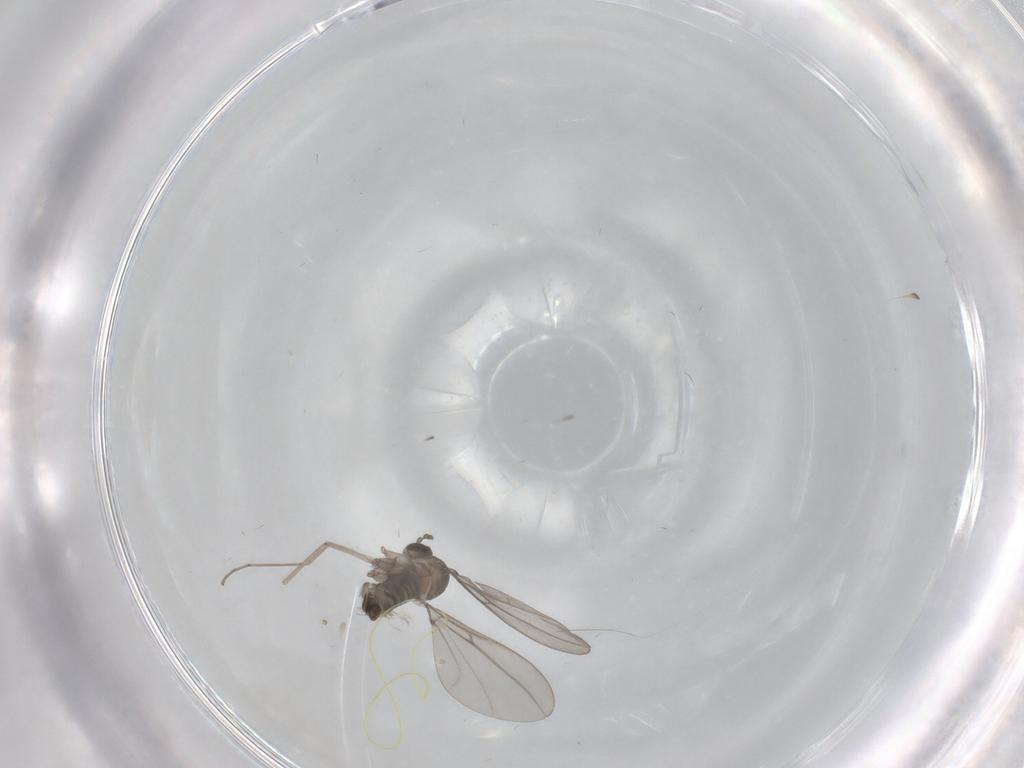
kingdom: Animalia
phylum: Arthropoda
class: Insecta
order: Diptera
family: Cecidomyiidae
